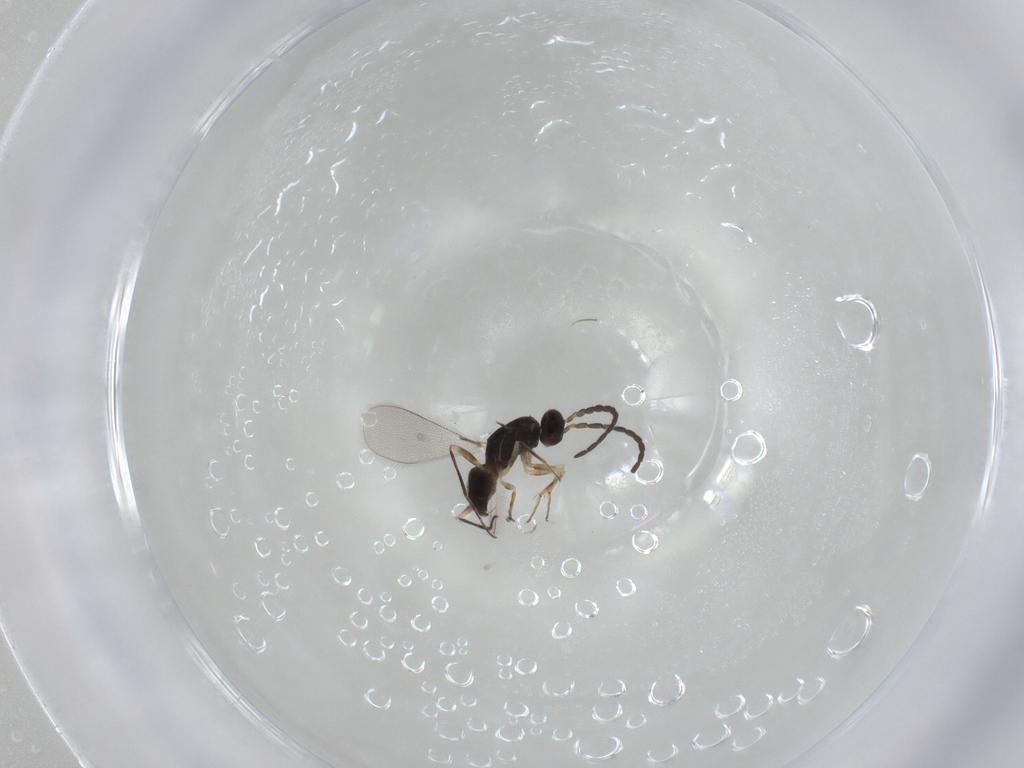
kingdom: Animalia
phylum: Arthropoda
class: Insecta
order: Hymenoptera
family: Mymaridae
